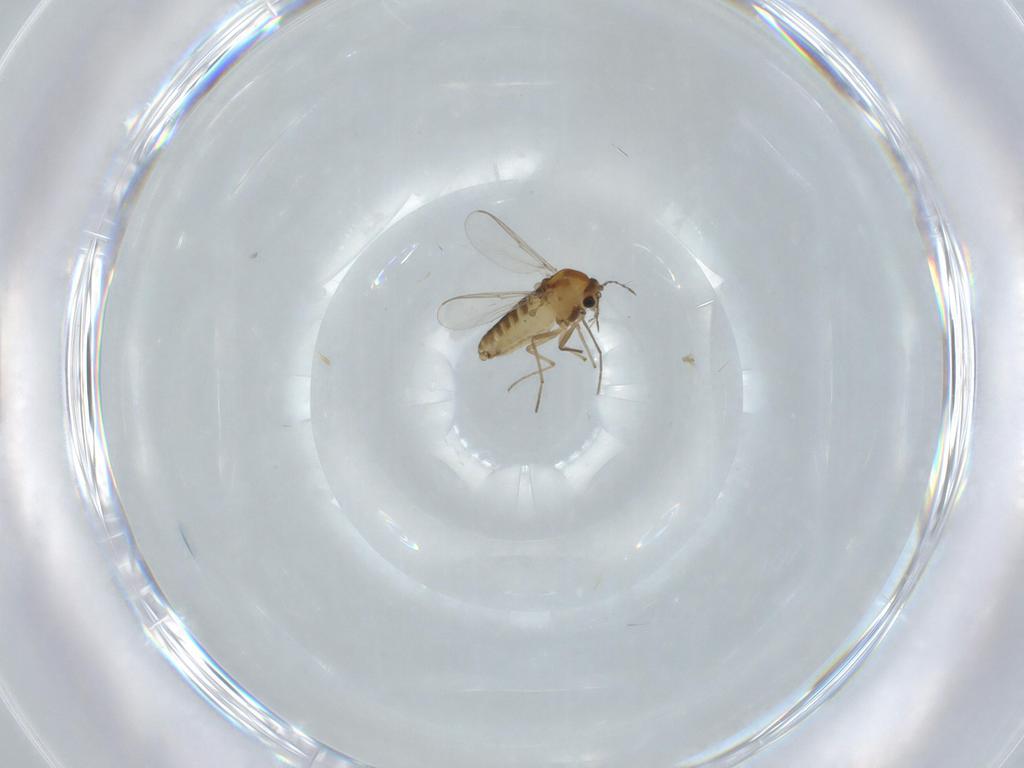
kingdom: Animalia
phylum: Arthropoda
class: Insecta
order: Diptera
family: Chironomidae
